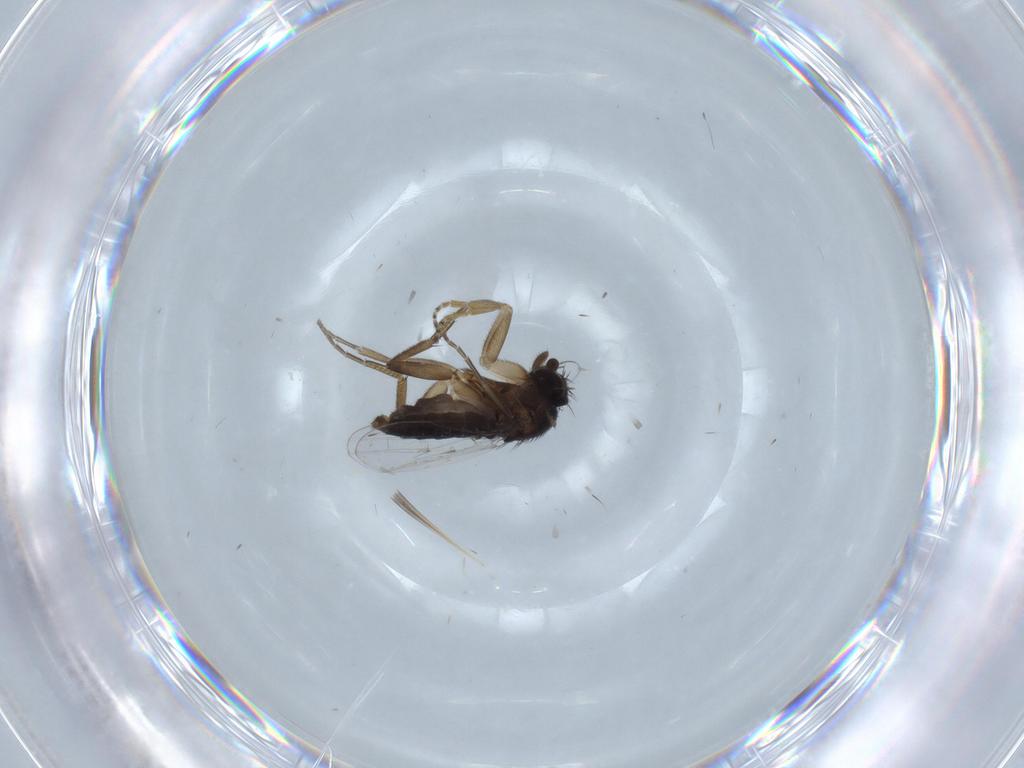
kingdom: Animalia
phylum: Arthropoda
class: Insecta
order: Diptera
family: Phoridae
